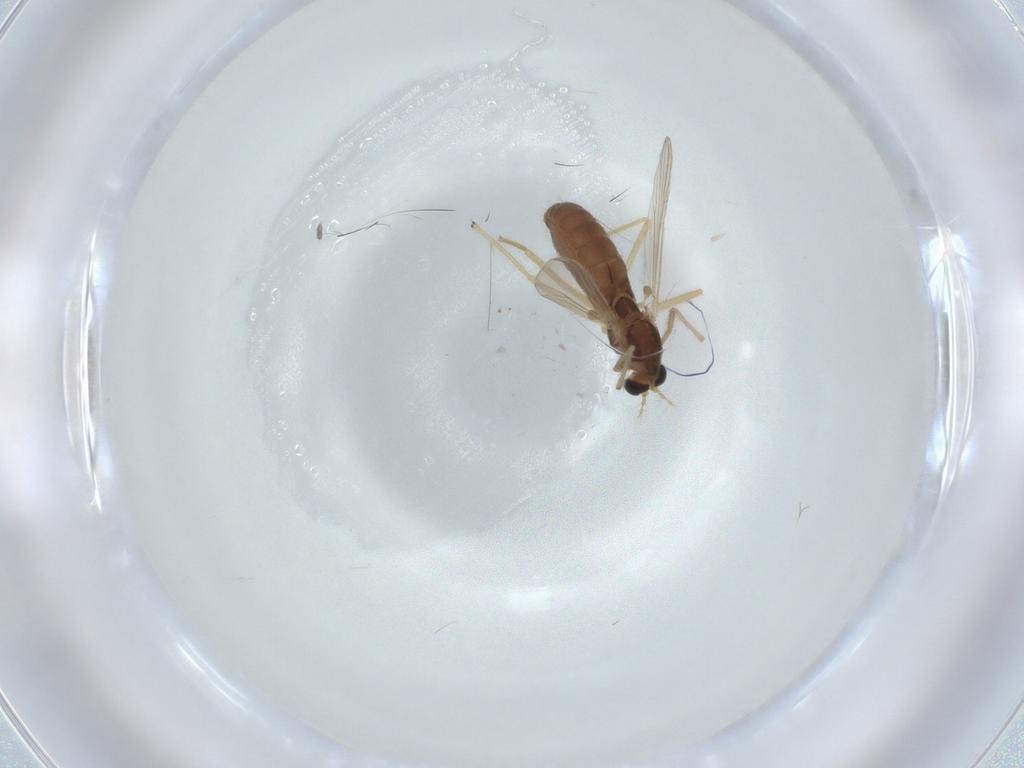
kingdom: Animalia
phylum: Arthropoda
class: Insecta
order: Diptera
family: Chironomidae
